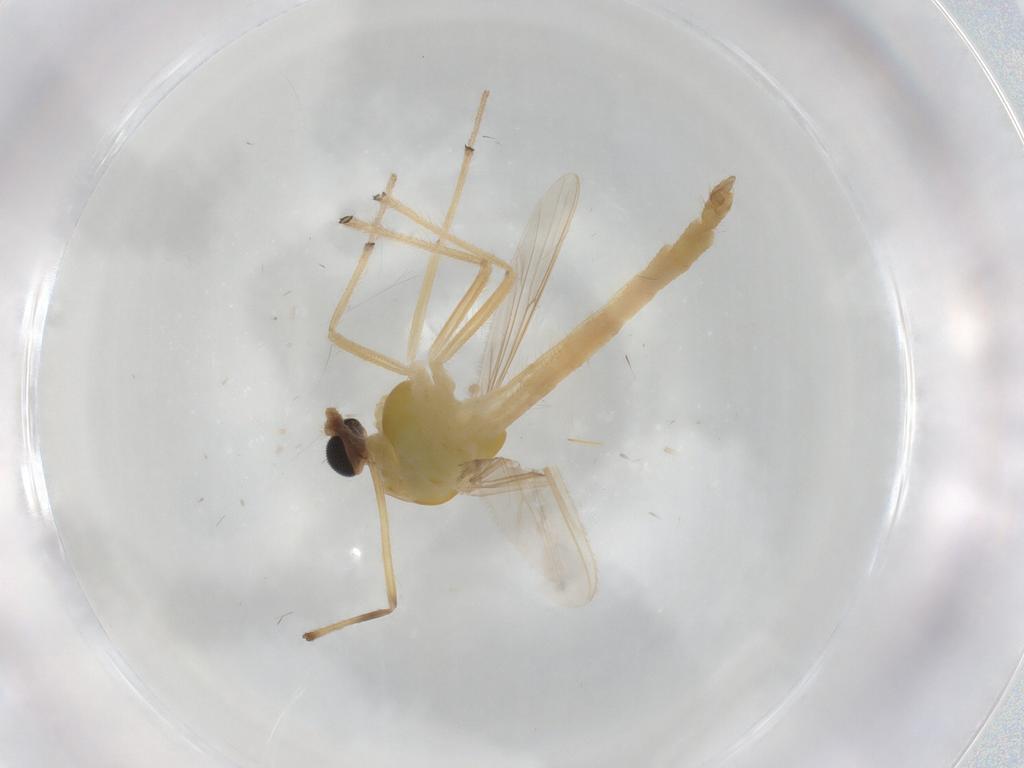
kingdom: Animalia
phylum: Arthropoda
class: Insecta
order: Diptera
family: Chironomidae
